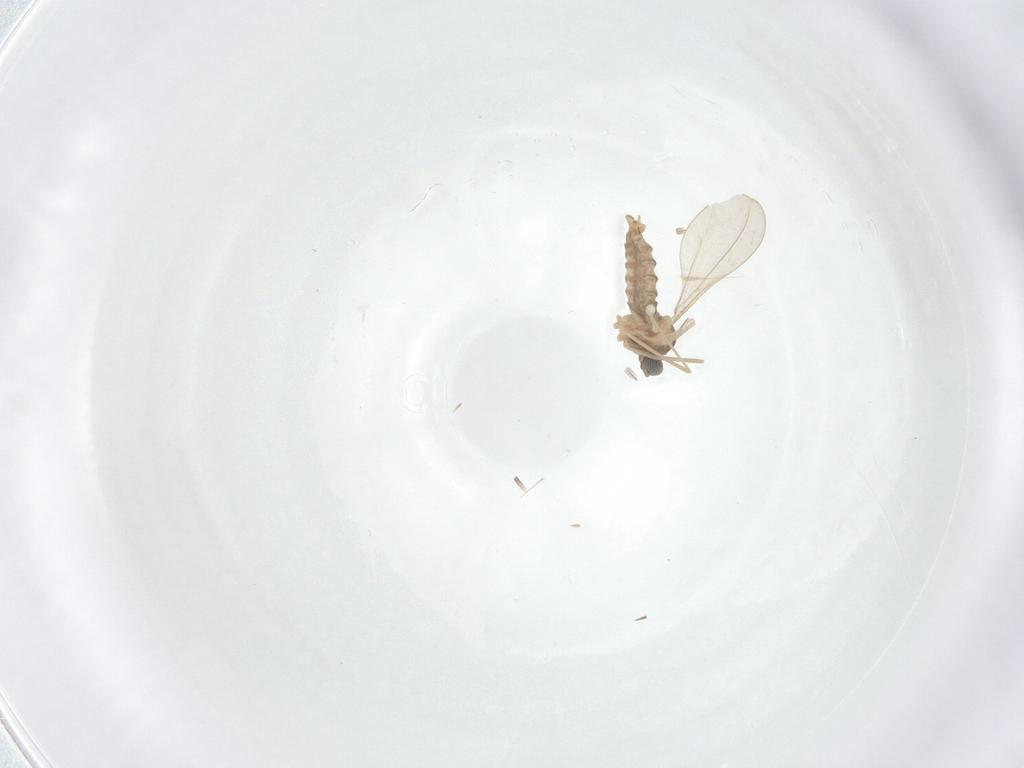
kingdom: Animalia
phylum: Arthropoda
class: Insecta
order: Diptera
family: Cecidomyiidae
